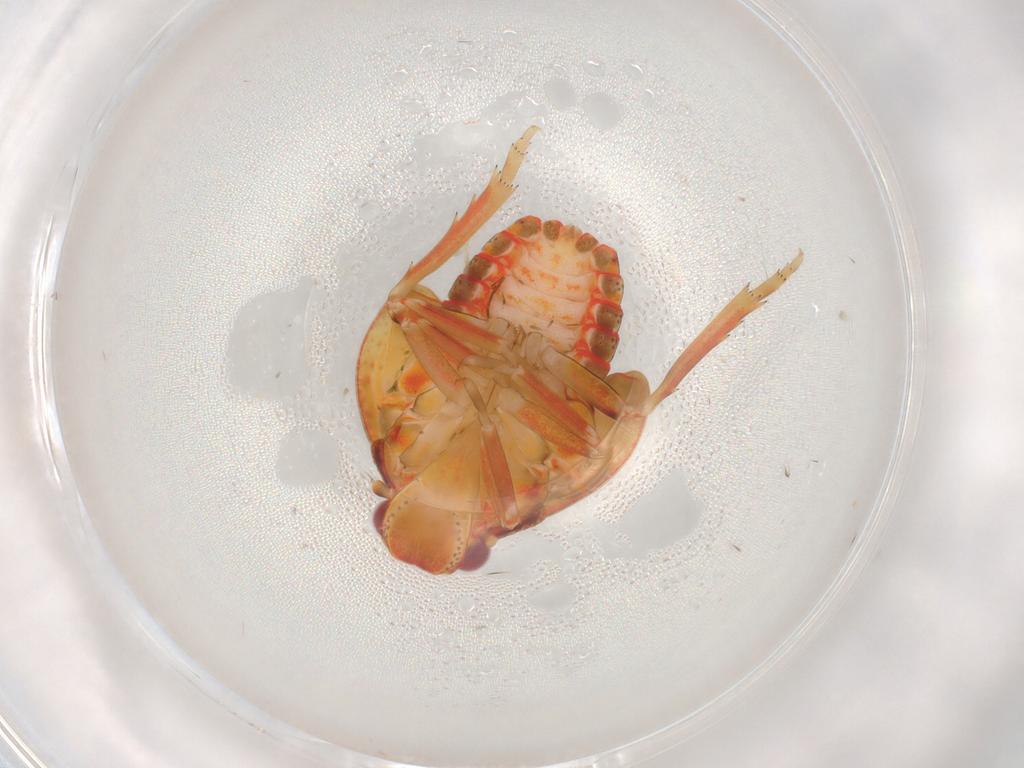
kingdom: Animalia
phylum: Arthropoda
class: Insecta
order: Hemiptera
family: Flatidae
